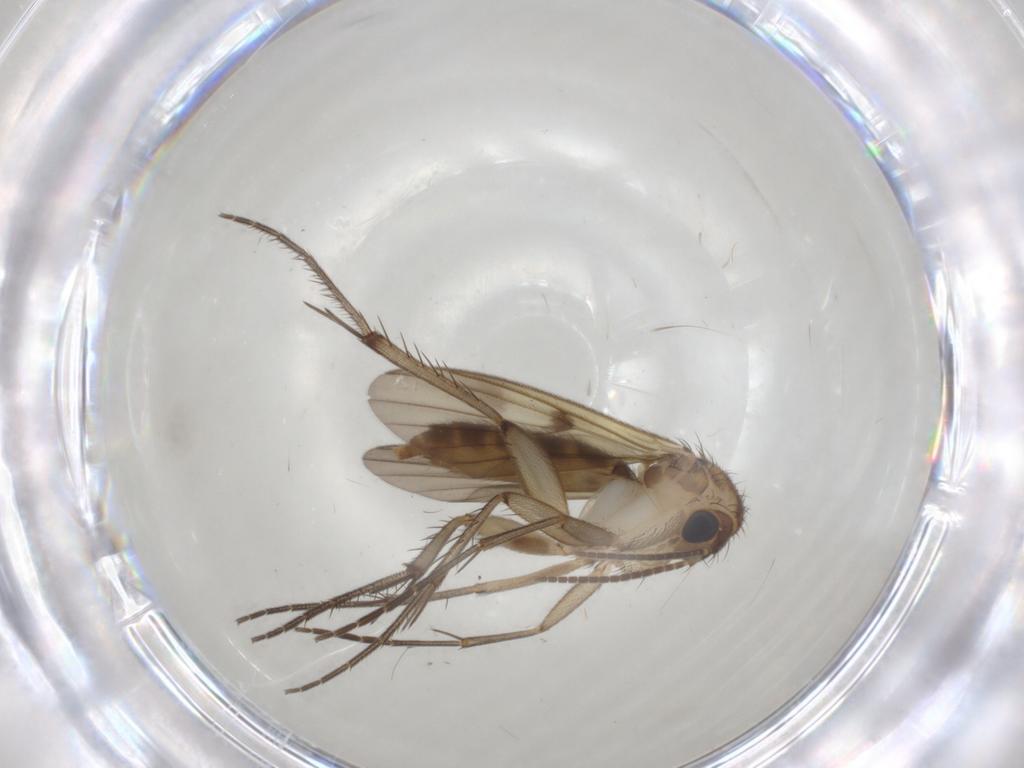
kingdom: Animalia
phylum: Arthropoda
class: Insecta
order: Diptera
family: Mycetophilidae
